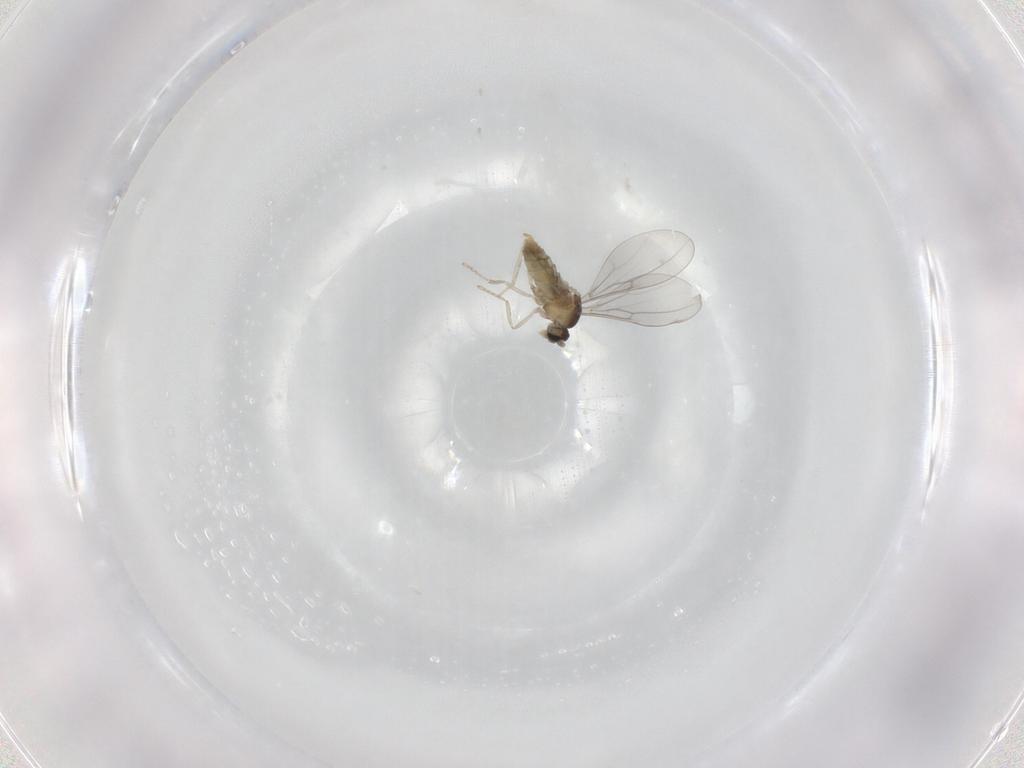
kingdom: Animalia
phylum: Arthropoda
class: Insecta
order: Diptera
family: Cecidomyiidae
